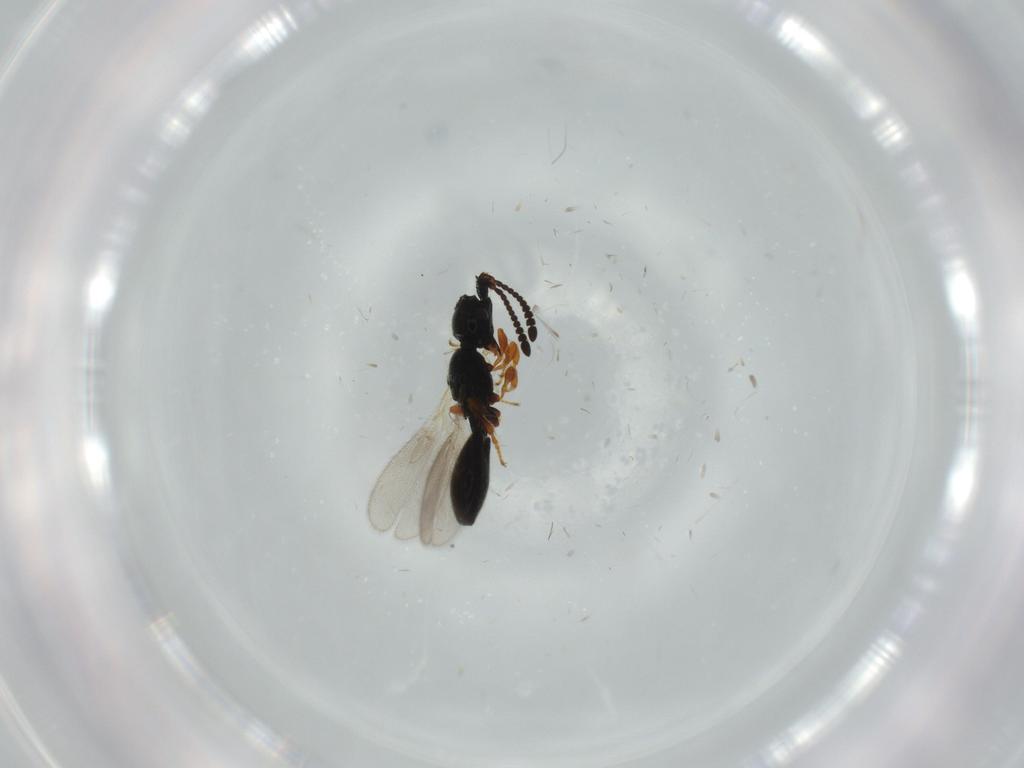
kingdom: Animalia
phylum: Arthropoda
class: Insecta
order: Hymenoptera
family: Diapriidae
